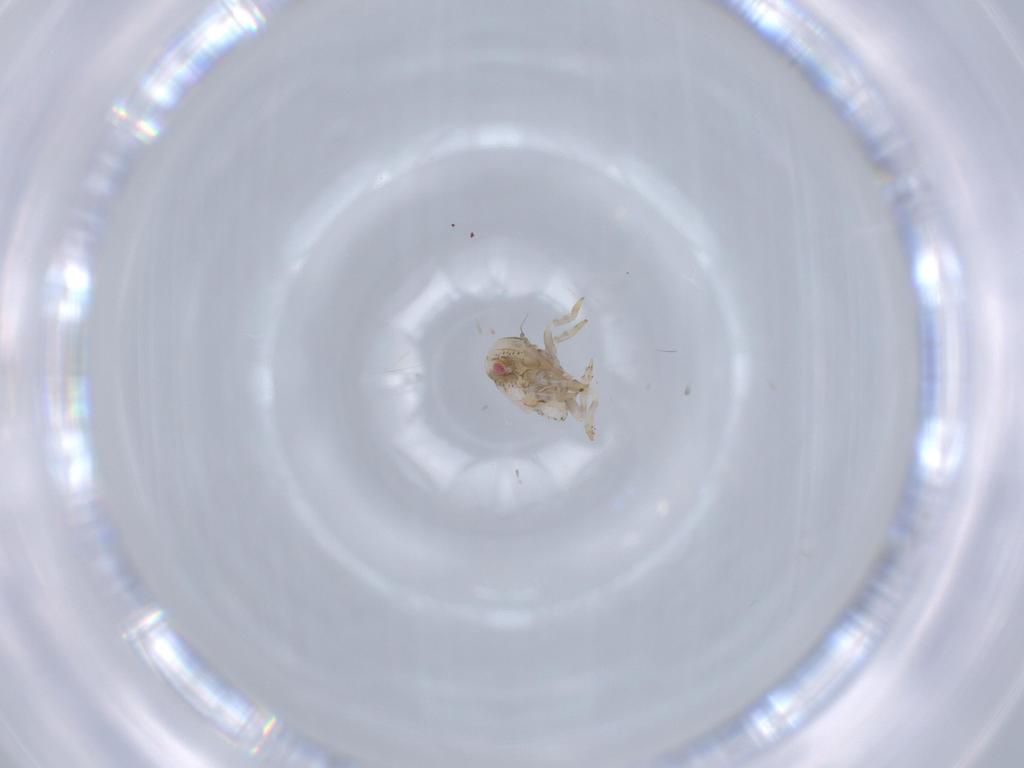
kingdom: Animalia
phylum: Arthropoda
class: Insecta
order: Hemiptera
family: Acanaloniidae
